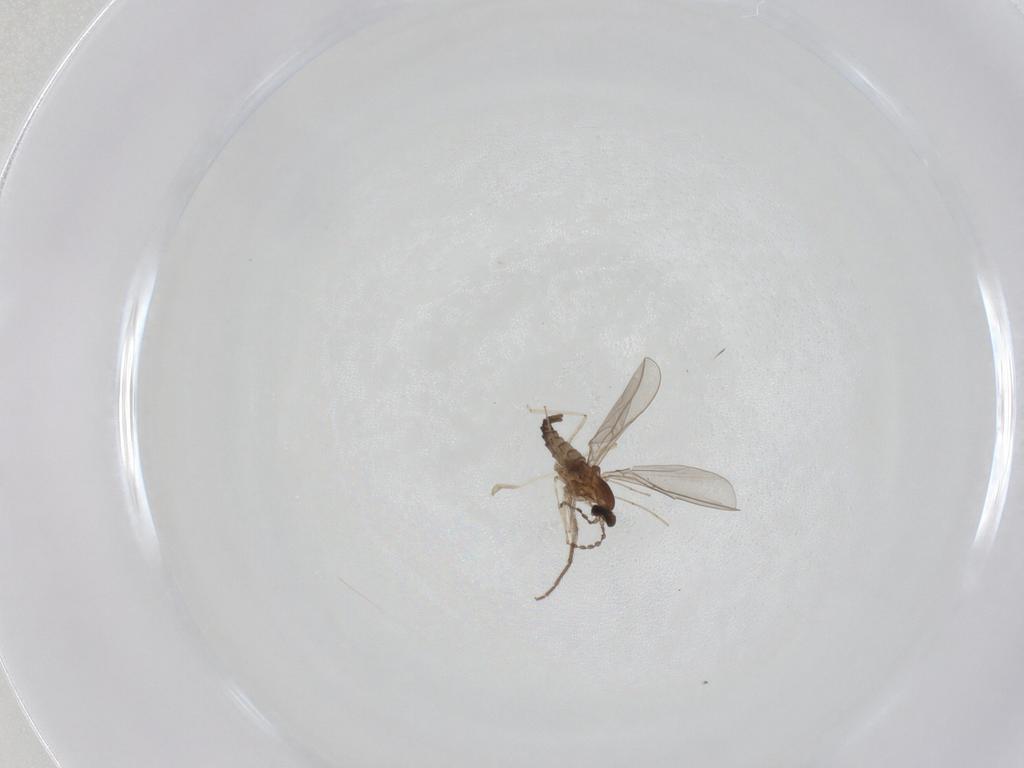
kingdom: Animalia
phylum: Arthropoda
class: Insecta
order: Diptera
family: Cecidomyiidae
